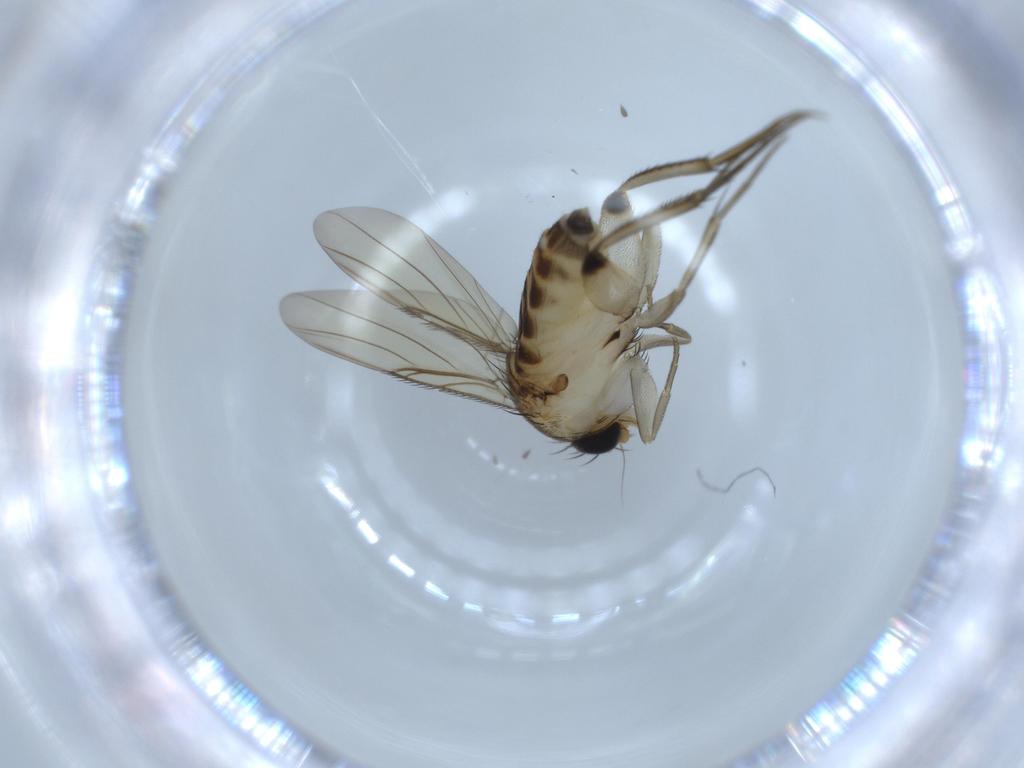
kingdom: Animalia
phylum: Arthropoda
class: Insecta
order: Diptera
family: Phoridae
